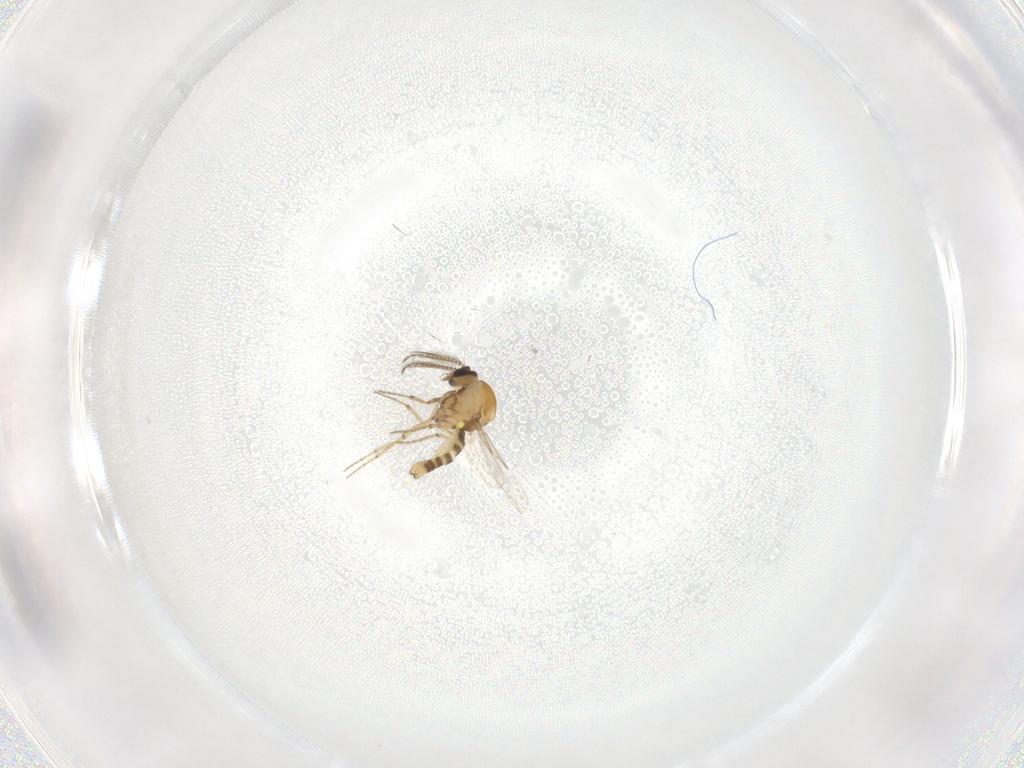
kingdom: Animalia
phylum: Arthropoda
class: Insecta
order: Diptera
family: Ceratopogonidae
